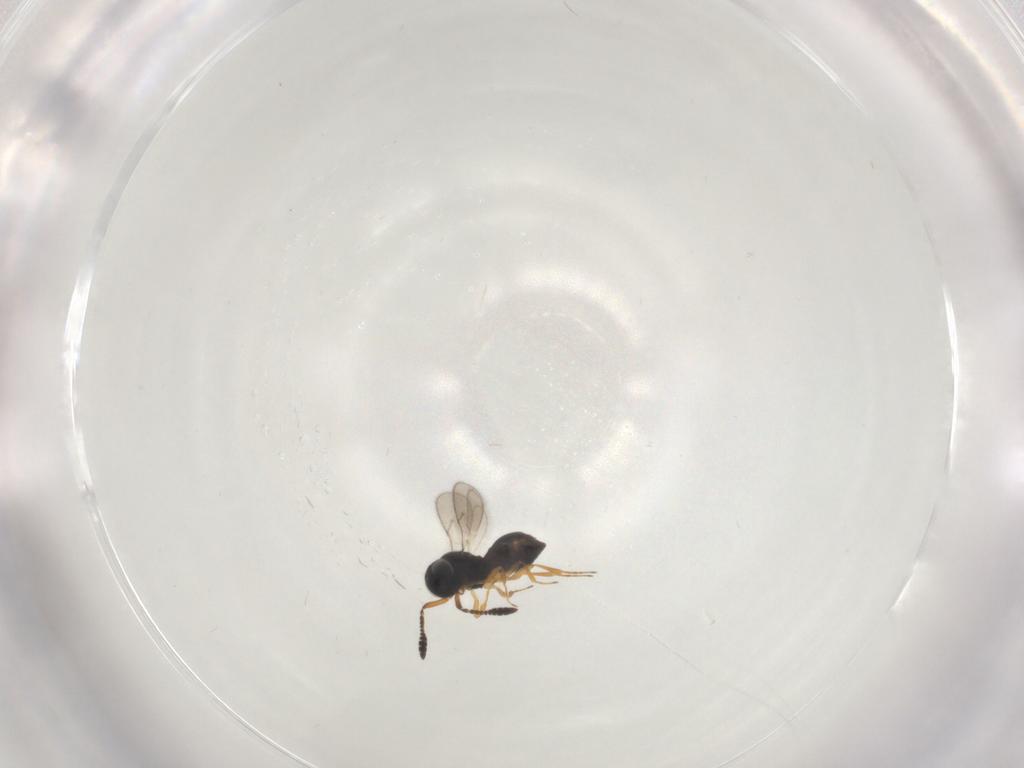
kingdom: Animalia
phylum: Arthropoda
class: Insecta
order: Hymenoptera
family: Scelionidae
